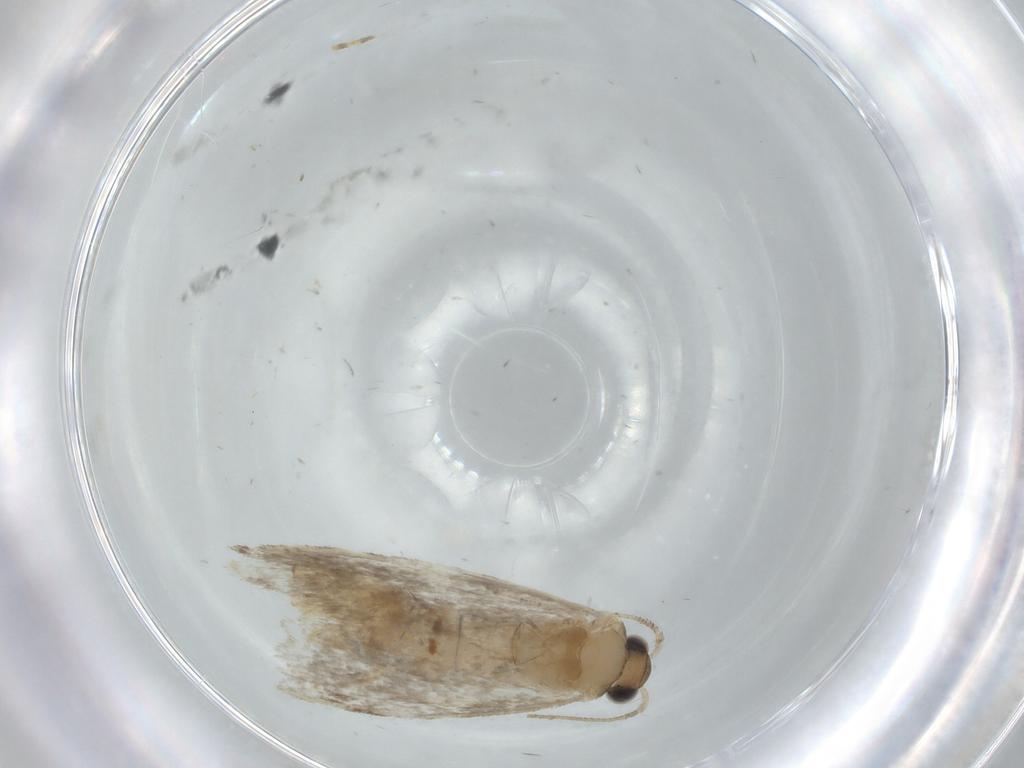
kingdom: Animalia
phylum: Arthropoda
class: Insecta
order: Lepidoptera
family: Tineidae
